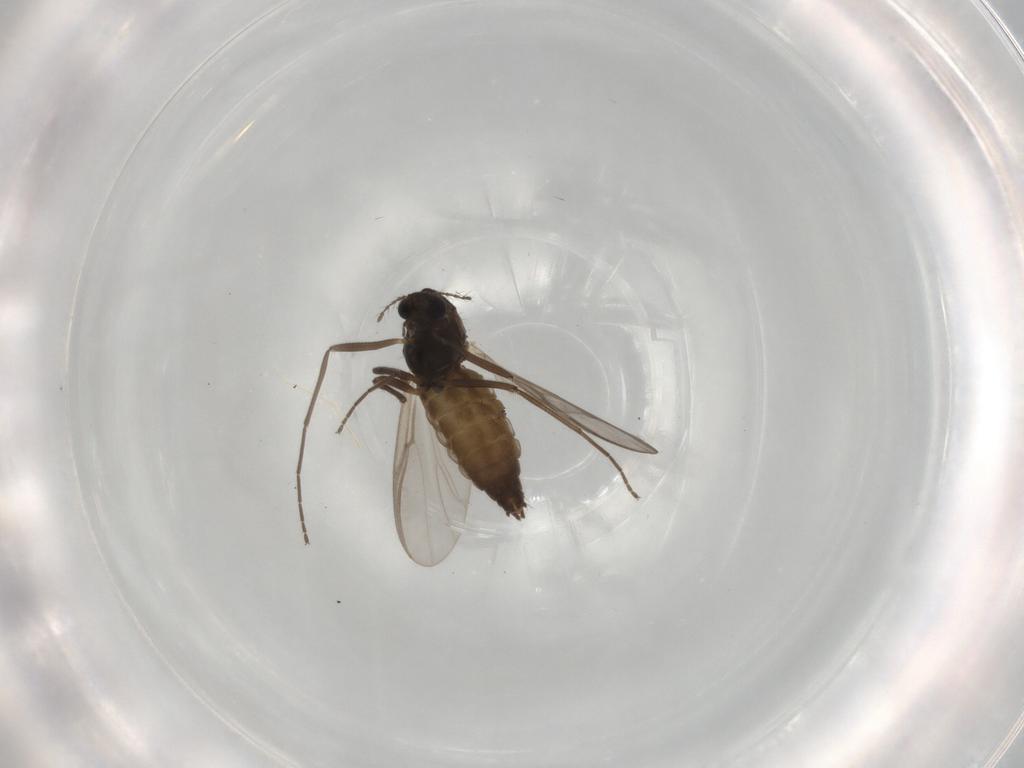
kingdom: Animalia
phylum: Arthropoda
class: Insecta
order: Diptera
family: Chironomidae
